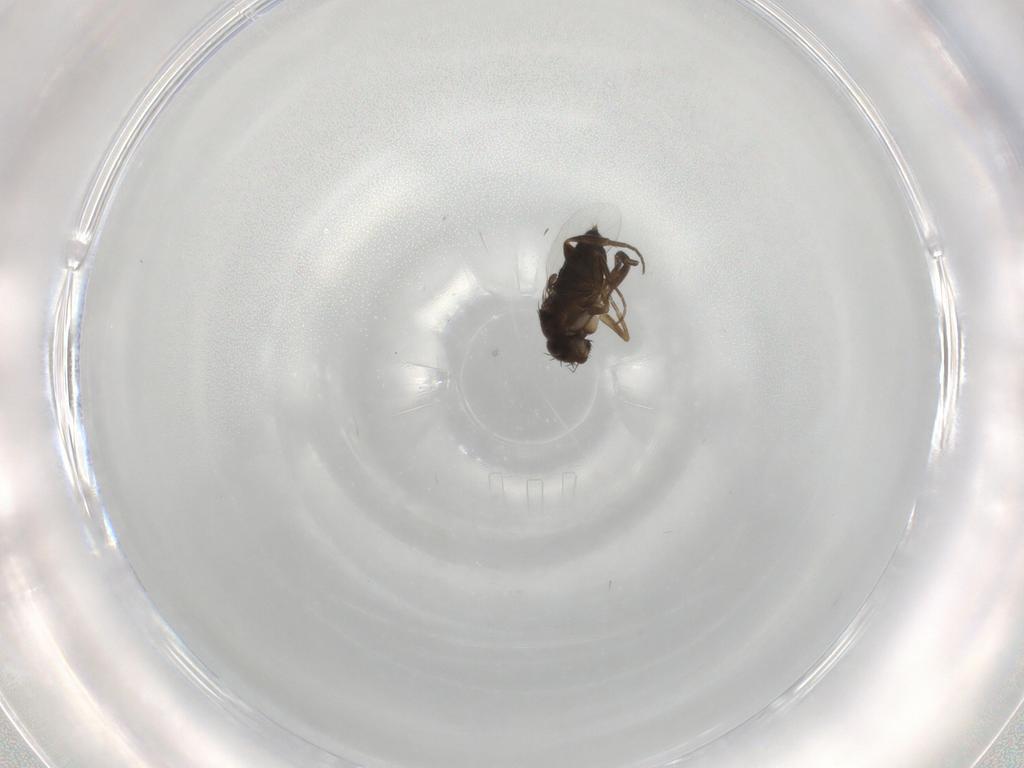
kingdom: Animalia
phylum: Arthropoda
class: Insecta
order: Diptera
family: Phoridae
